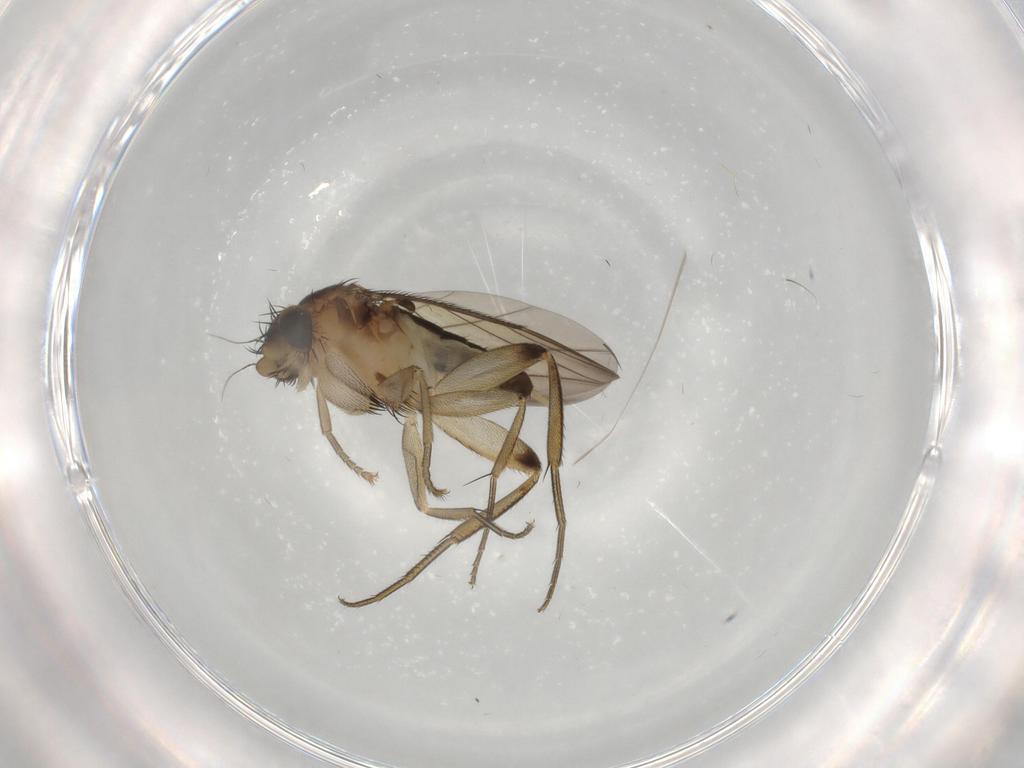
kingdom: Animalia
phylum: Arthropoda
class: Insecta
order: Diptera
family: Phoridae
